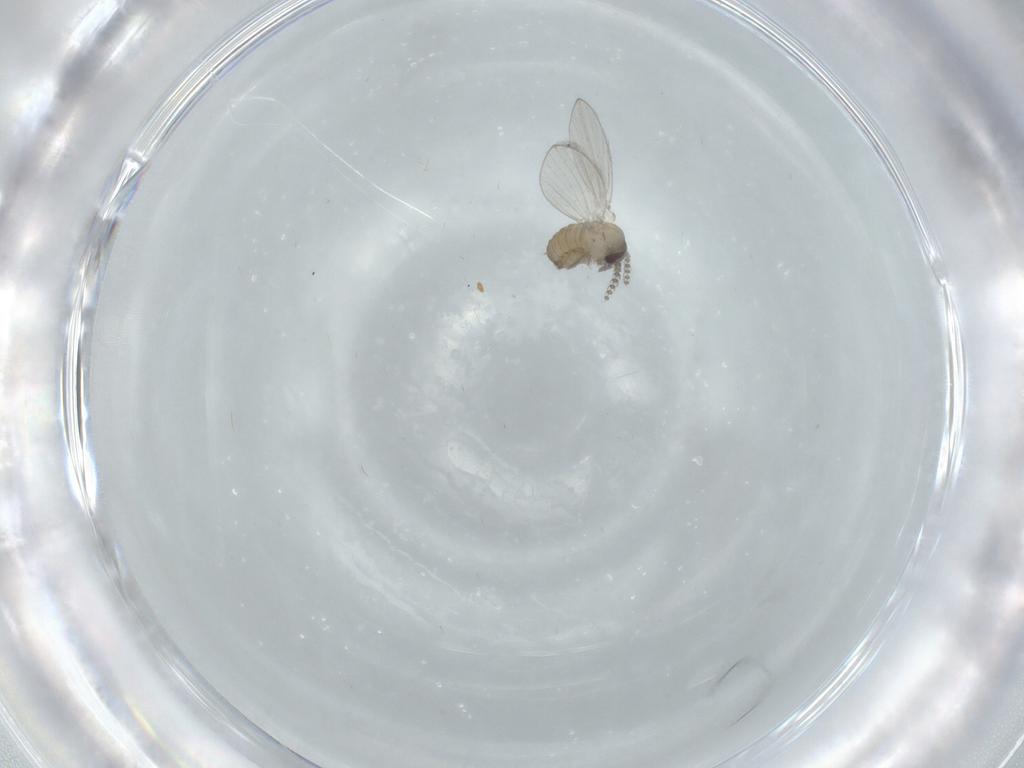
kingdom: Animalia
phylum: Arthropoda
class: Insecta
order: Diptera
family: Psychodidae
